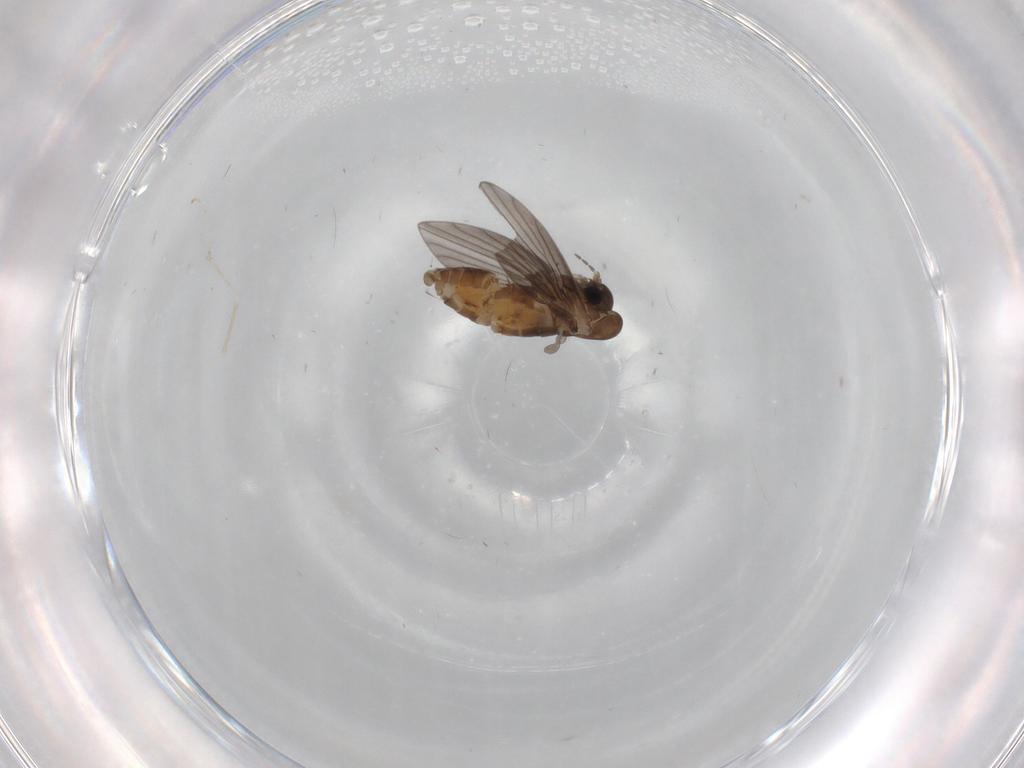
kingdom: Animalia
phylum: Arthropoda
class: Insecta
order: Diptera
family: Psychodidae
